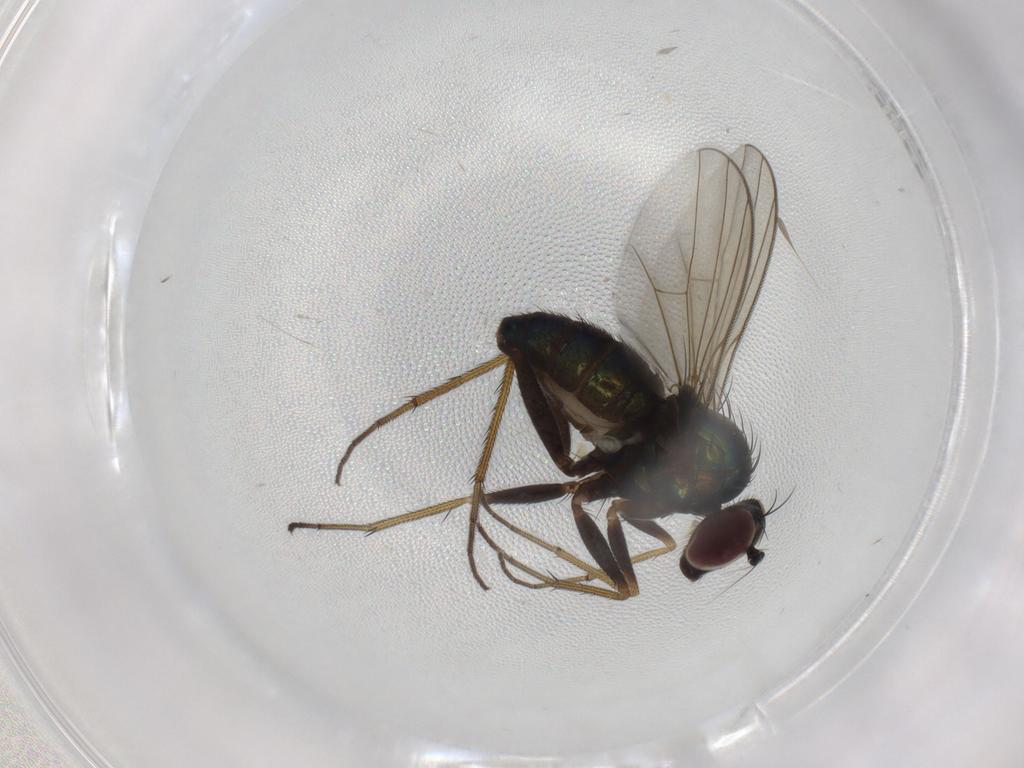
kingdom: Animalia
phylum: Arthropoda
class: Insecta
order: Diptera
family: Dolichopodidae
